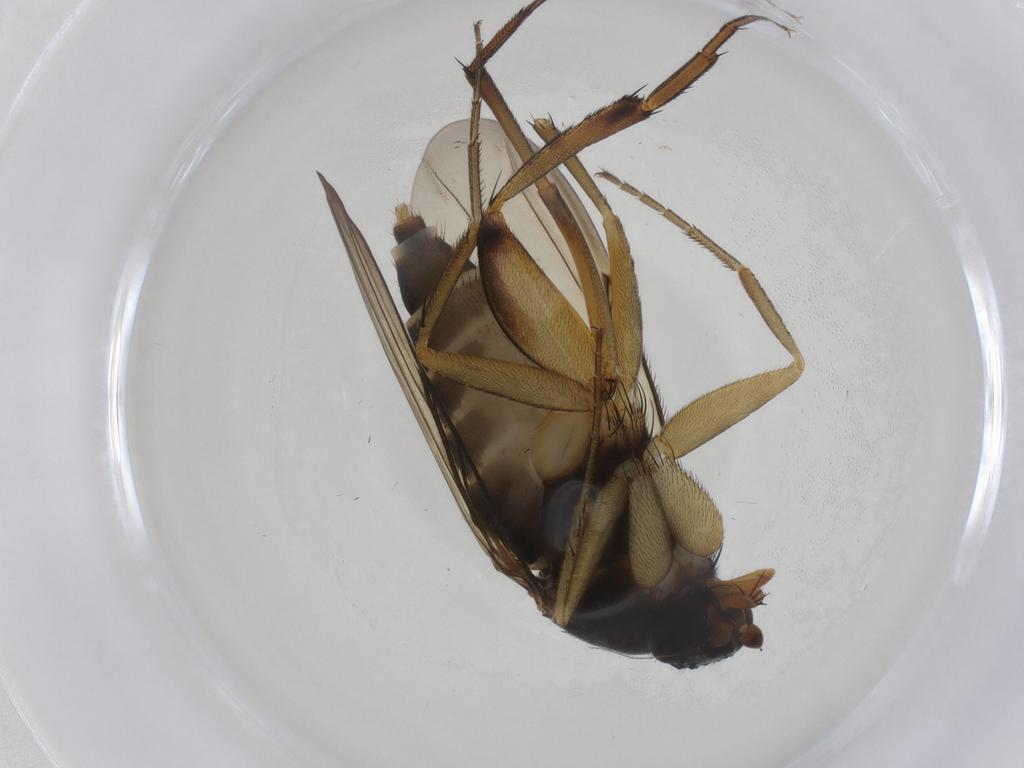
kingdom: Animalia
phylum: Arthropoda
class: Insecta
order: Diptera
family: Phoridae
